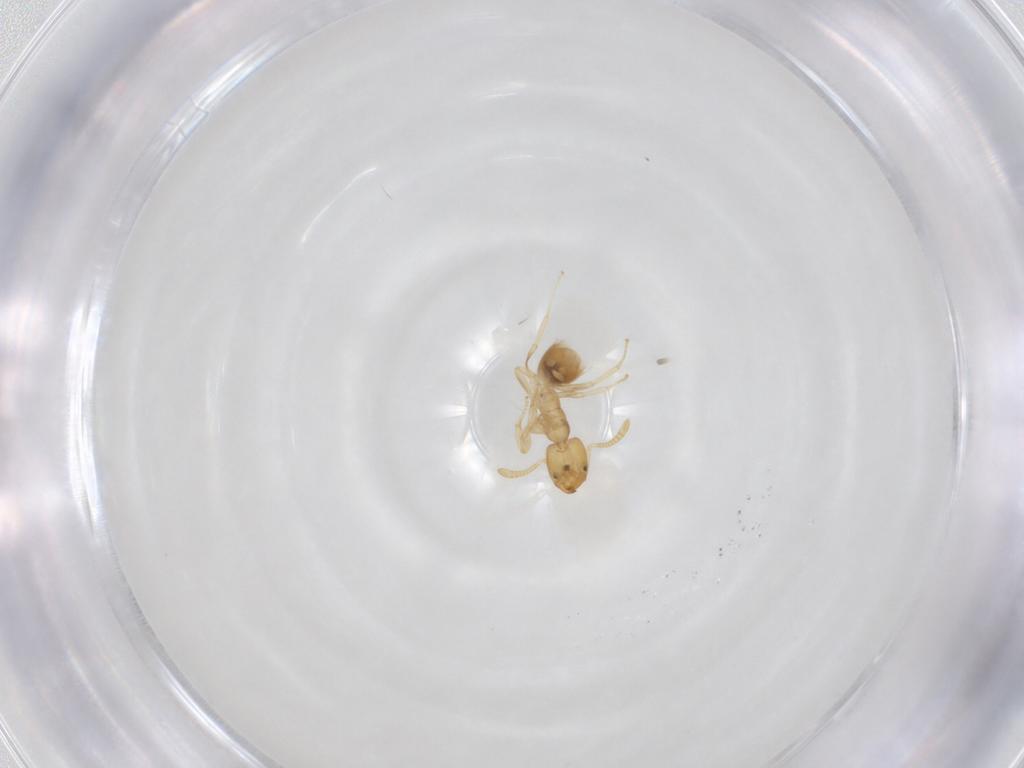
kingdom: Animalia
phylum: Arthropoda
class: Insecta
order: Hymenoptera
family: Formicidae
